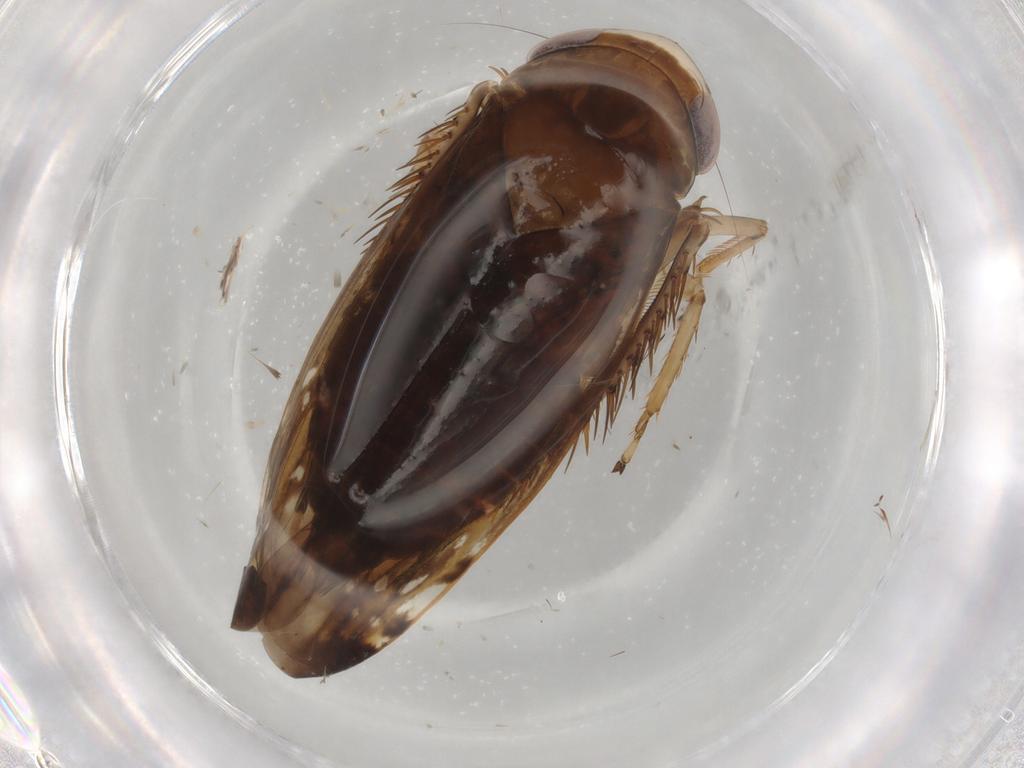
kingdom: Animalia
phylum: Arthropoda
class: Insecta
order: Hemiptera
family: Cicadellidae
